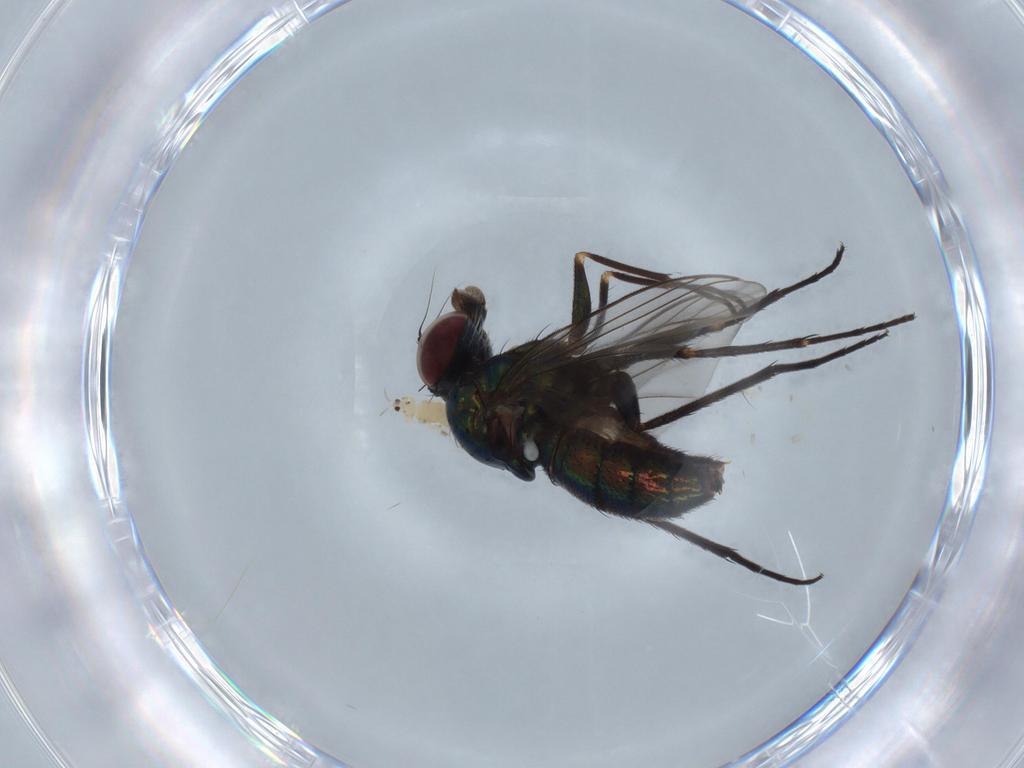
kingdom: Animalia
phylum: Arthropoda
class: Insecta
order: Diptera
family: Dolichopodidae
